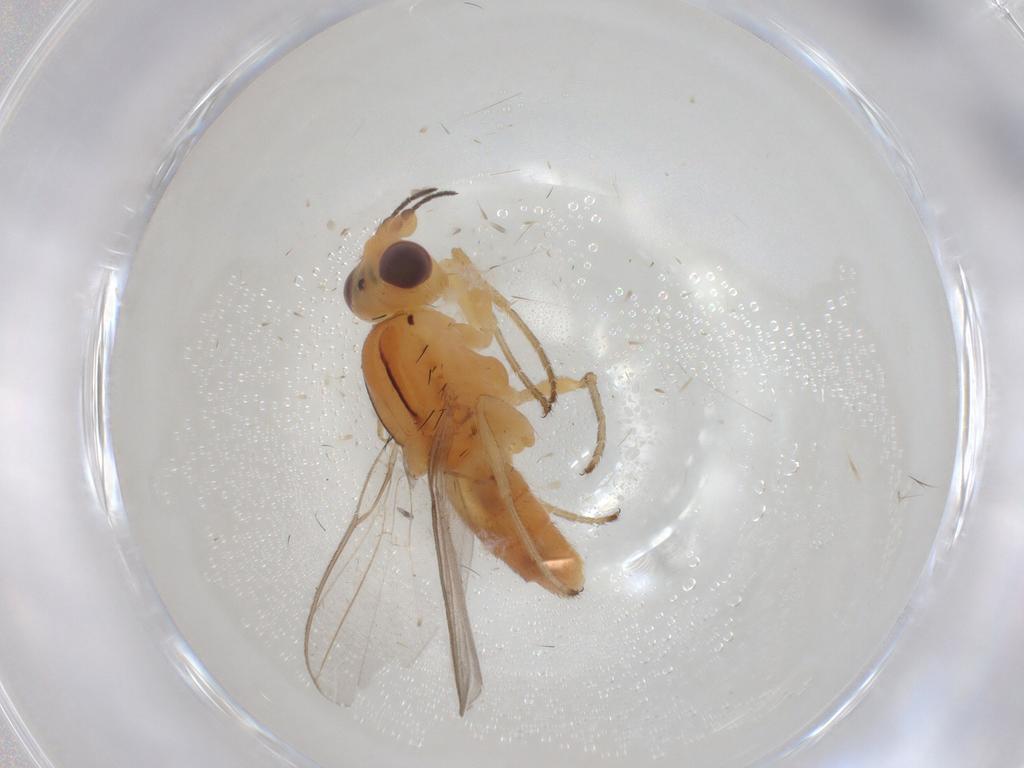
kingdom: Animalia
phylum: Arthropoda
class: Insecta
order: Diptera
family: Chloropidae
